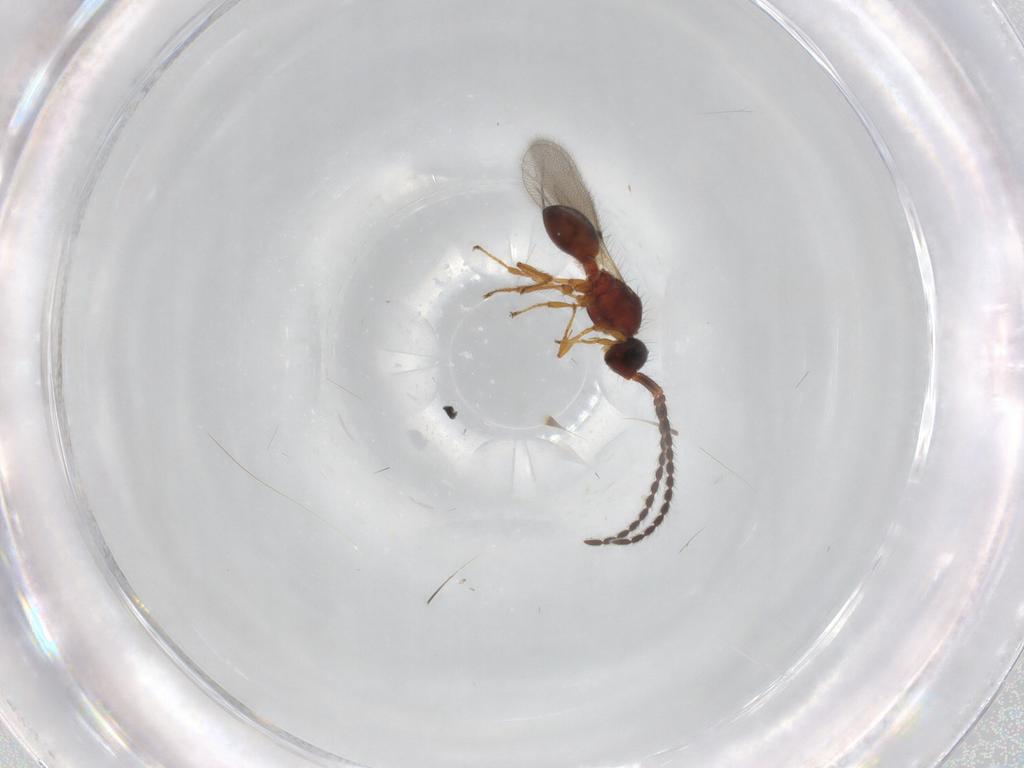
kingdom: Animalia
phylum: Arthropoda
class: Insecta
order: Hymenoptera
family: Diapriidae
